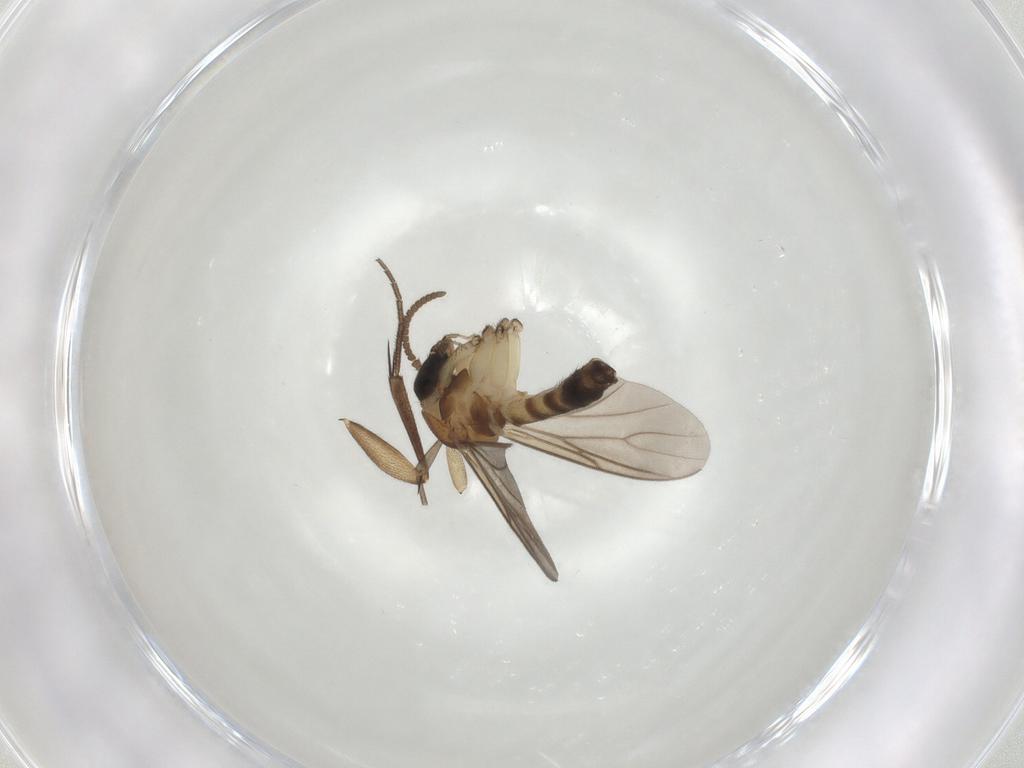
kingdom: Animalia
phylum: Arthropoda
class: Insecta
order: Diptera
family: Mycetophilidae
